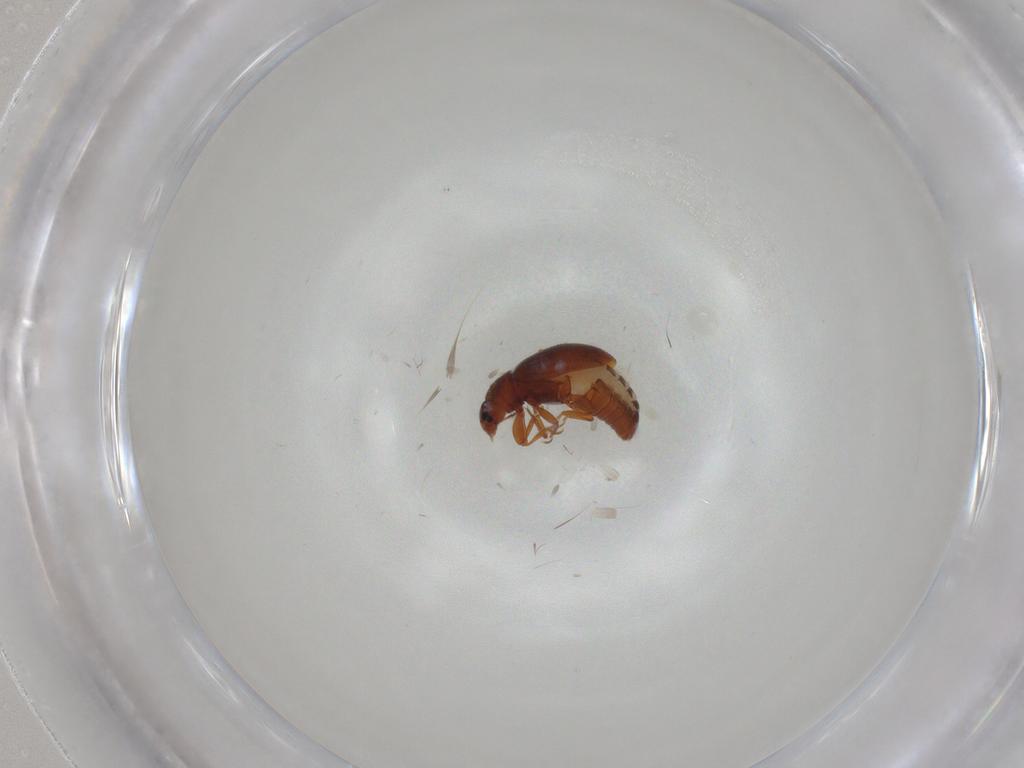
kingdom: Animalia
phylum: Arthropoda
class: Insecta
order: Coleoptera
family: Latridiidae
